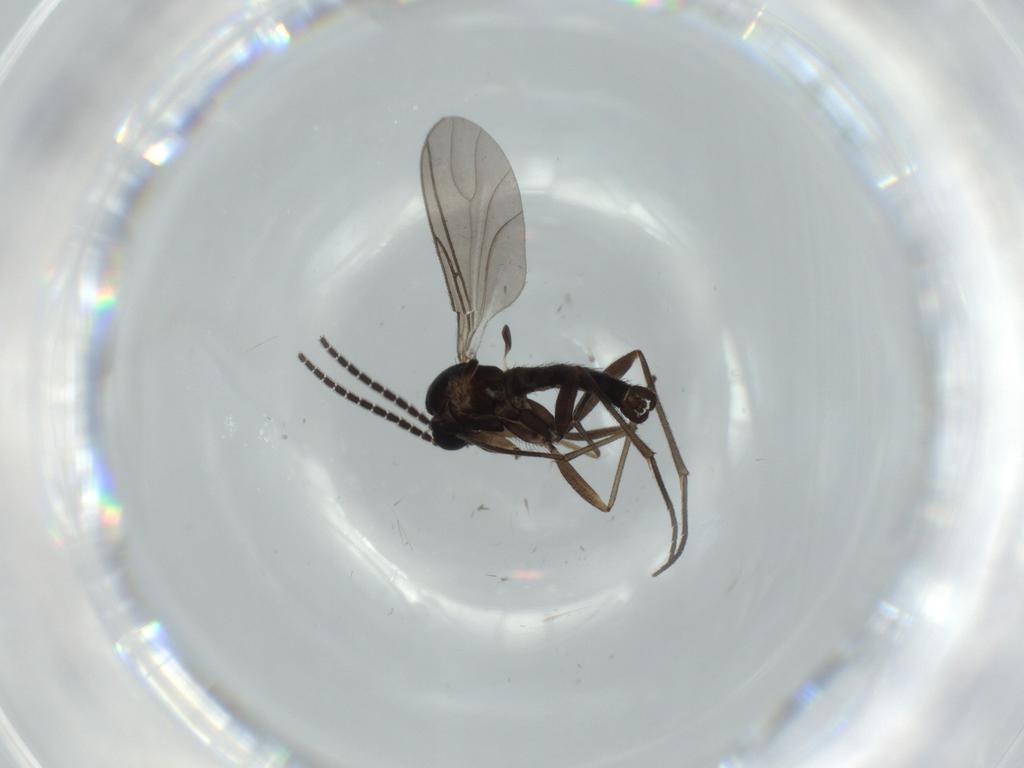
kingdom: Animalia
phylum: Arthropoda
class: Insecta
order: Diptera
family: Sciaridae
